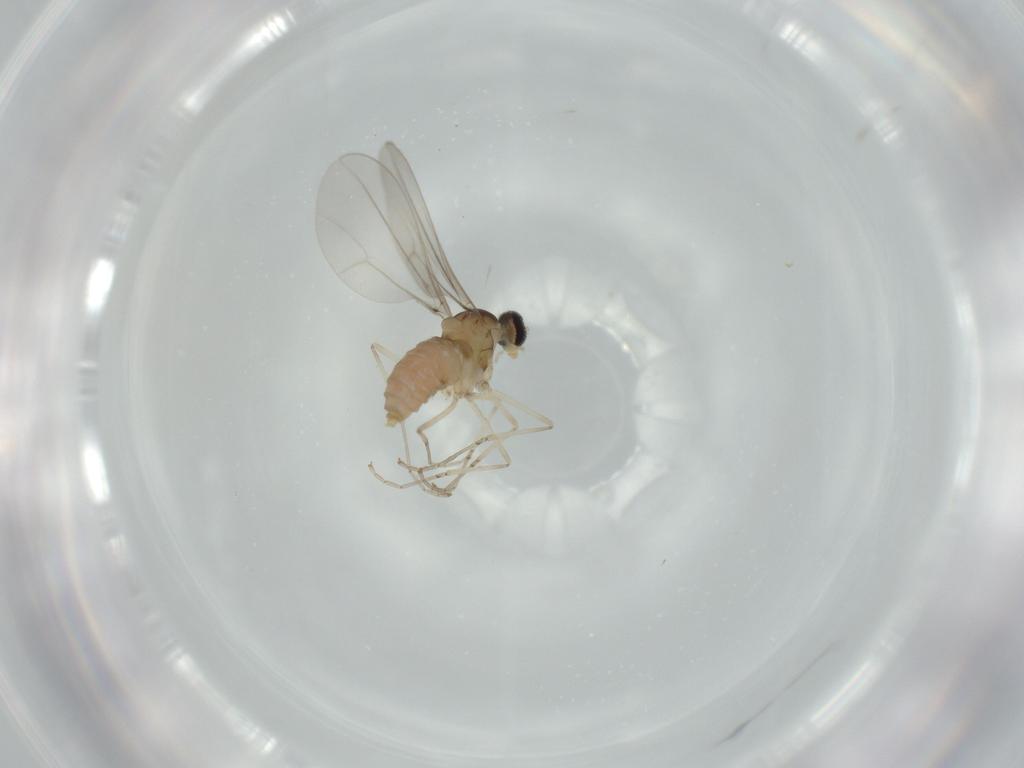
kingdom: Animalia
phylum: Arthropoda
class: Insecta
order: Diptera
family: Cecidomyiidae
